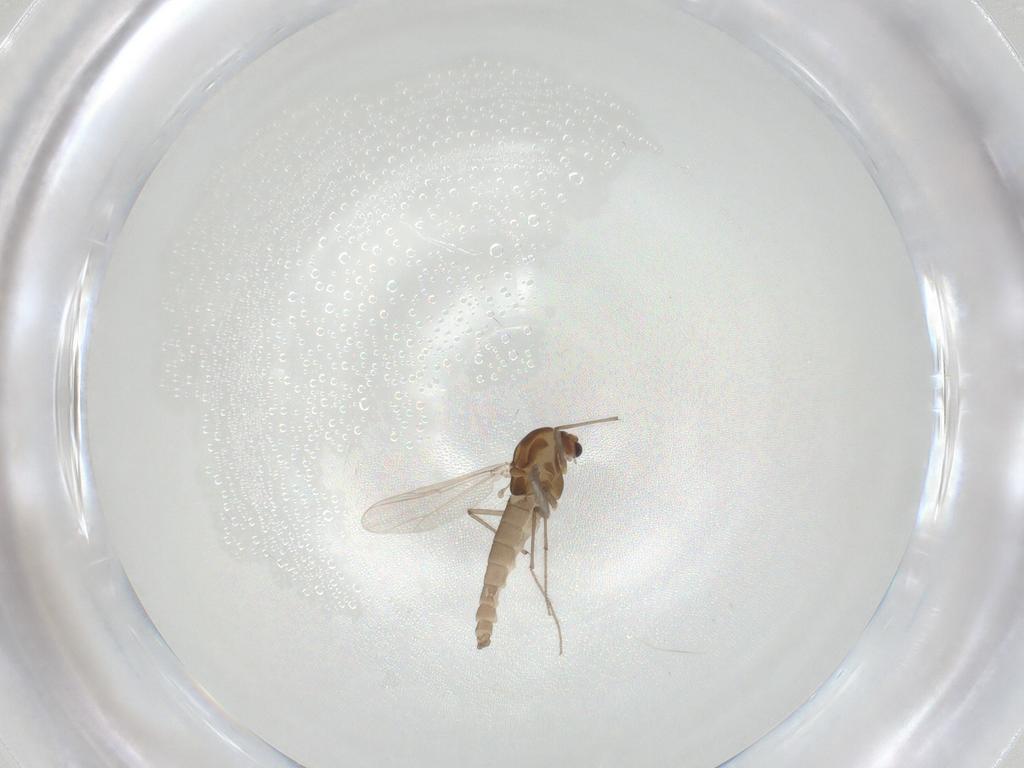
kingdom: Animalia
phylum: Arthropoda
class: Insecta
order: Diptera
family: Chironomidae
